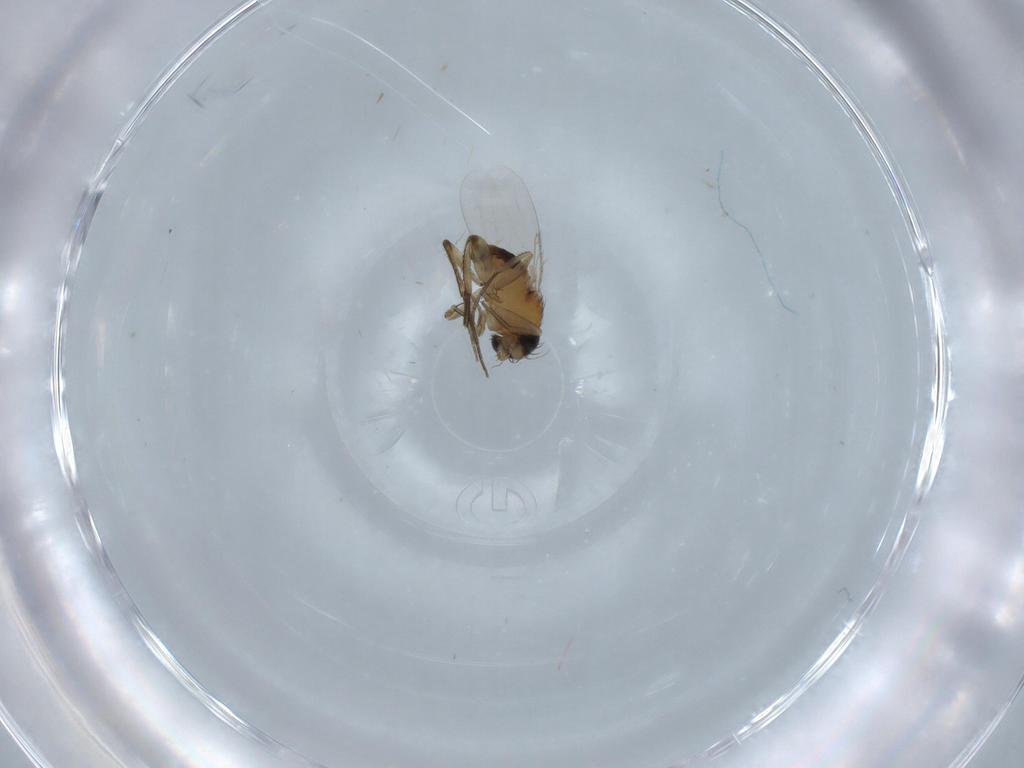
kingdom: Animalia
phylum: Arthropoda
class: Insecta
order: Diptera
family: Phoridae
